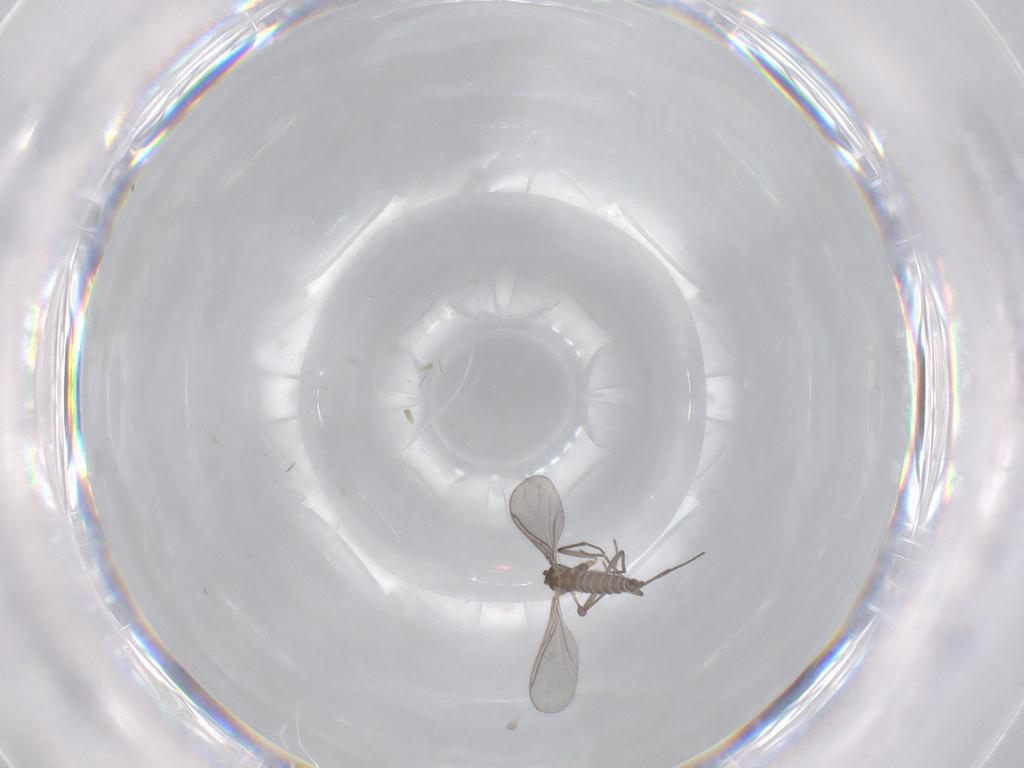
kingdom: Animalia
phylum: Arthropoda
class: Insecta
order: Diptera
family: Sciaridae
